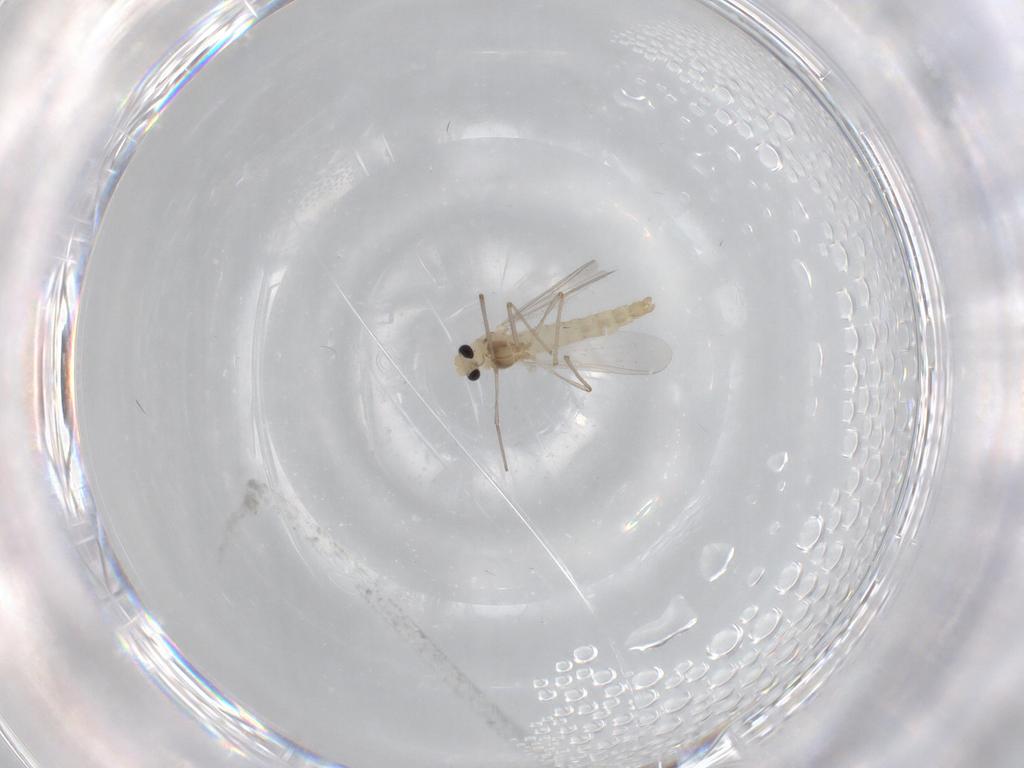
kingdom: Animalia
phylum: Arthropoda
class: Insecta
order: Diptera
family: Chironomidae
